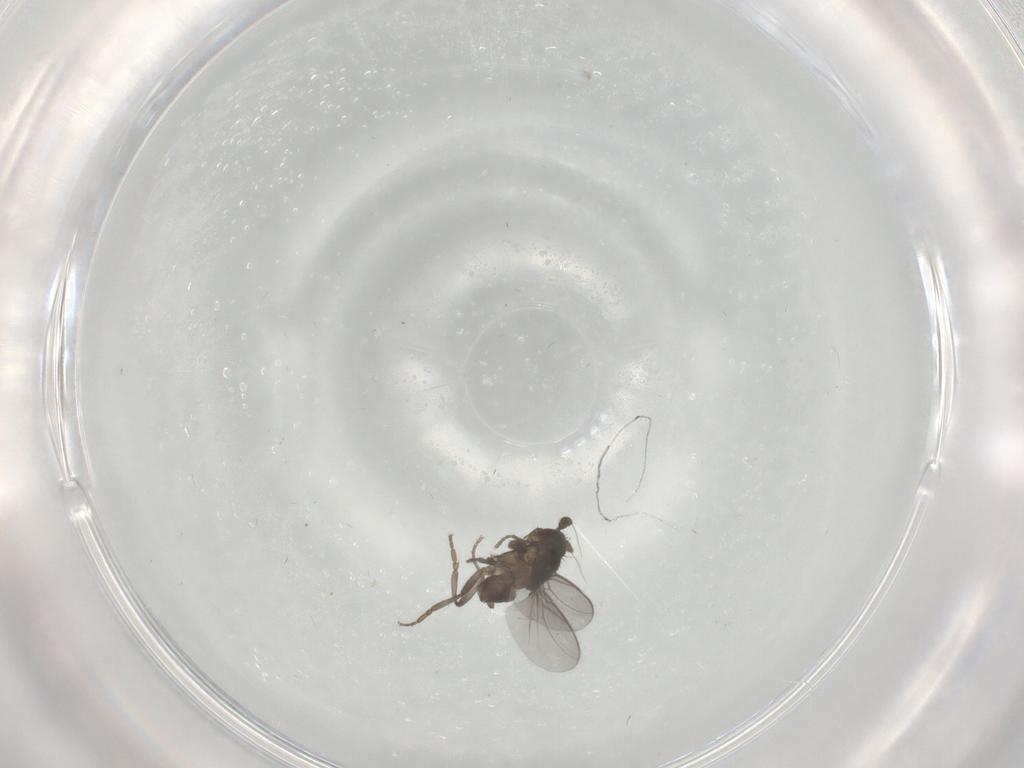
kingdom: Animalia
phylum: Arthropoda
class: Insecta
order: Diptera
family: Sphaeroceridae
